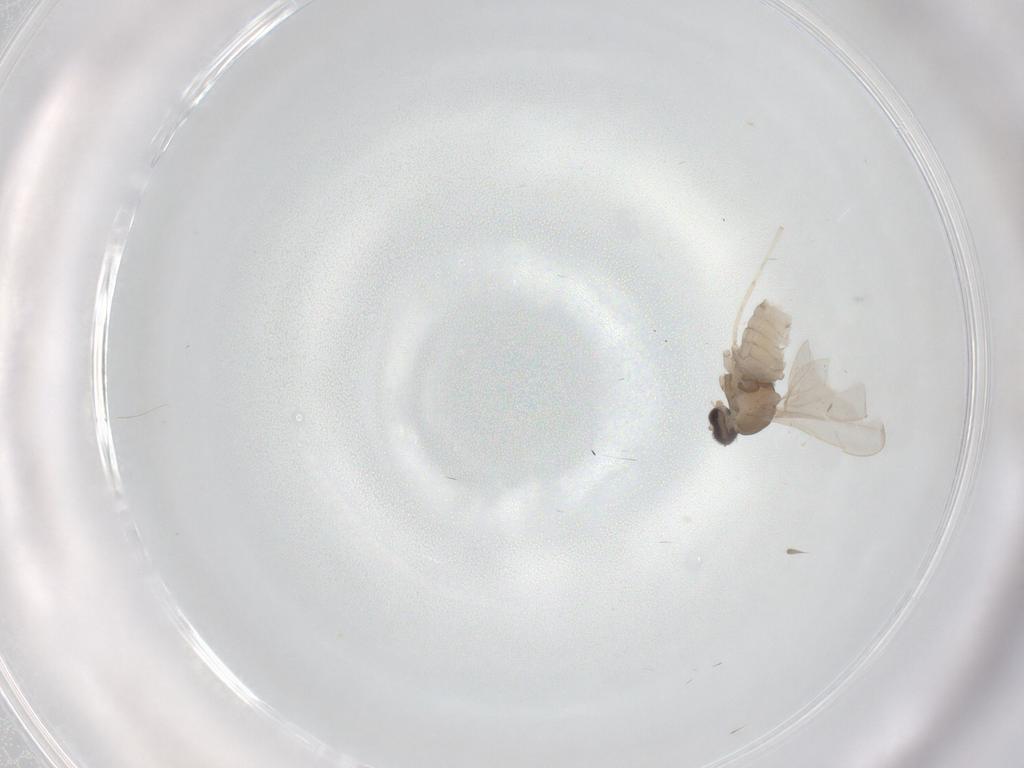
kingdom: Animalia
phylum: Arthropoda
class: Insecta
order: Diptera
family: Cecidomyiidae
